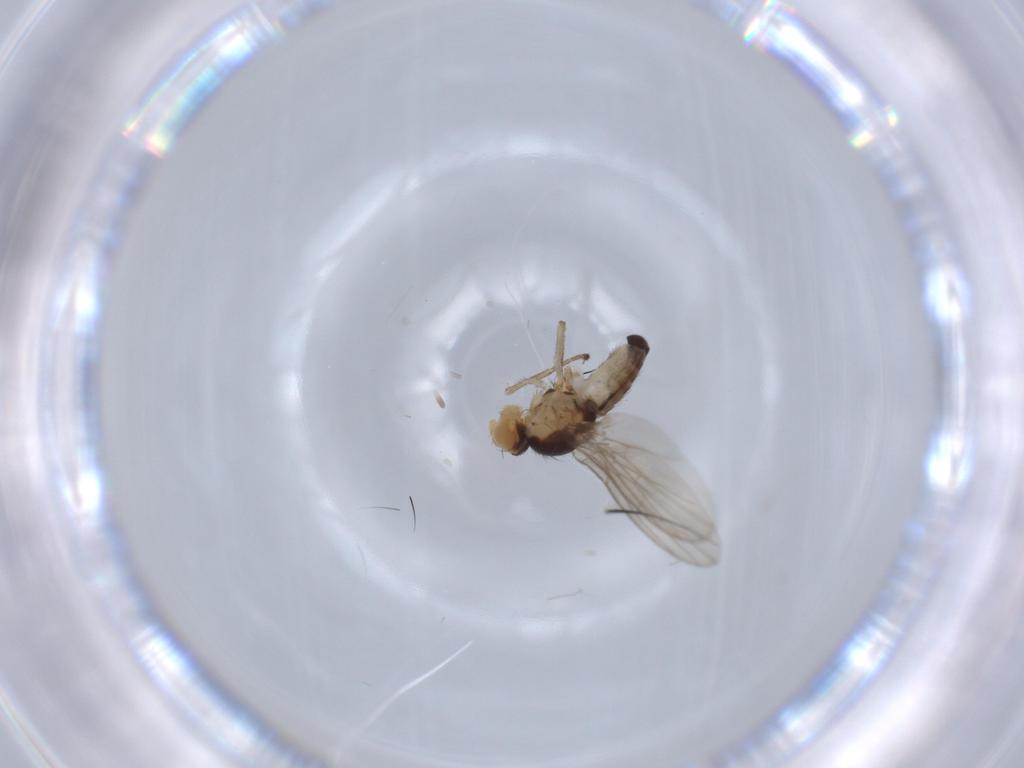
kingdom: Animalia
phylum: Arthropoda
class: Insecta
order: Diptera
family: Agromyzidae
